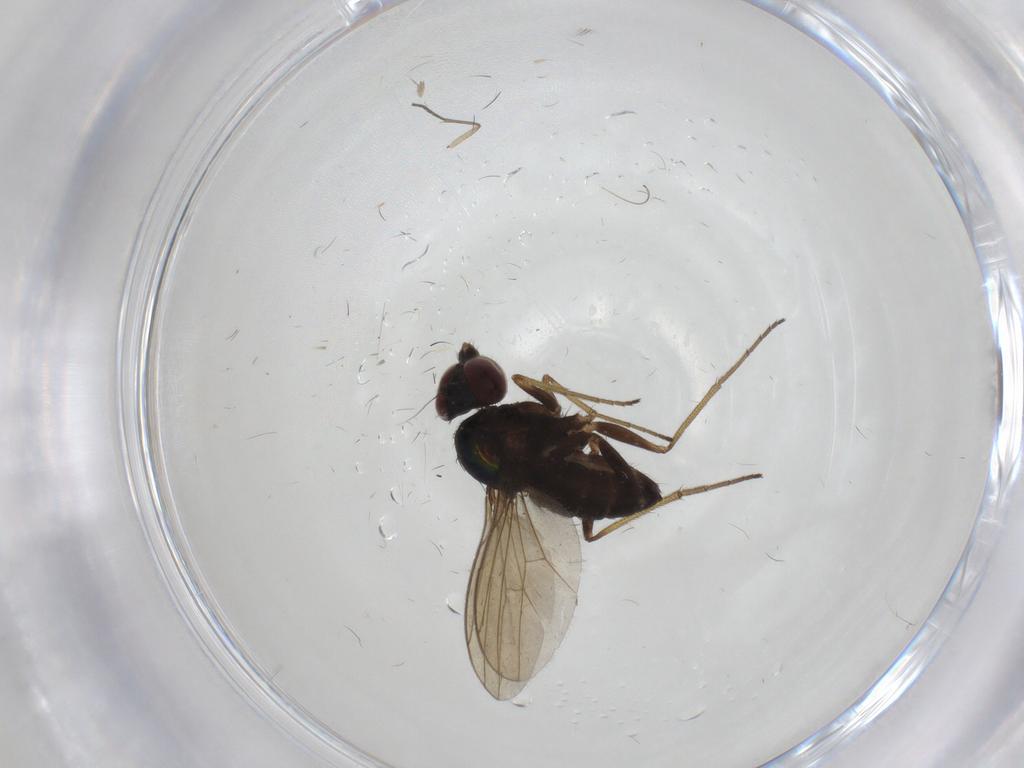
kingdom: Animalia
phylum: Arthropoda
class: Insecta
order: Diptera
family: Dolichopodidae
